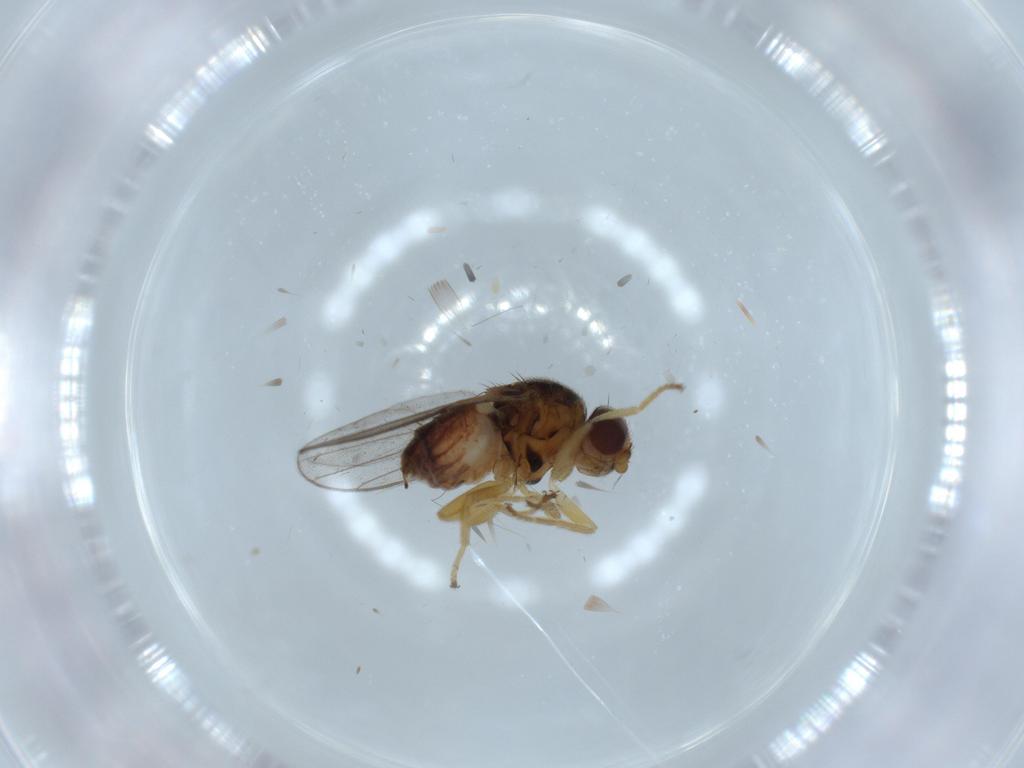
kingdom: Animalia
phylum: Arthropoda
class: Insecta
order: Diptera
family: Chloropidae
